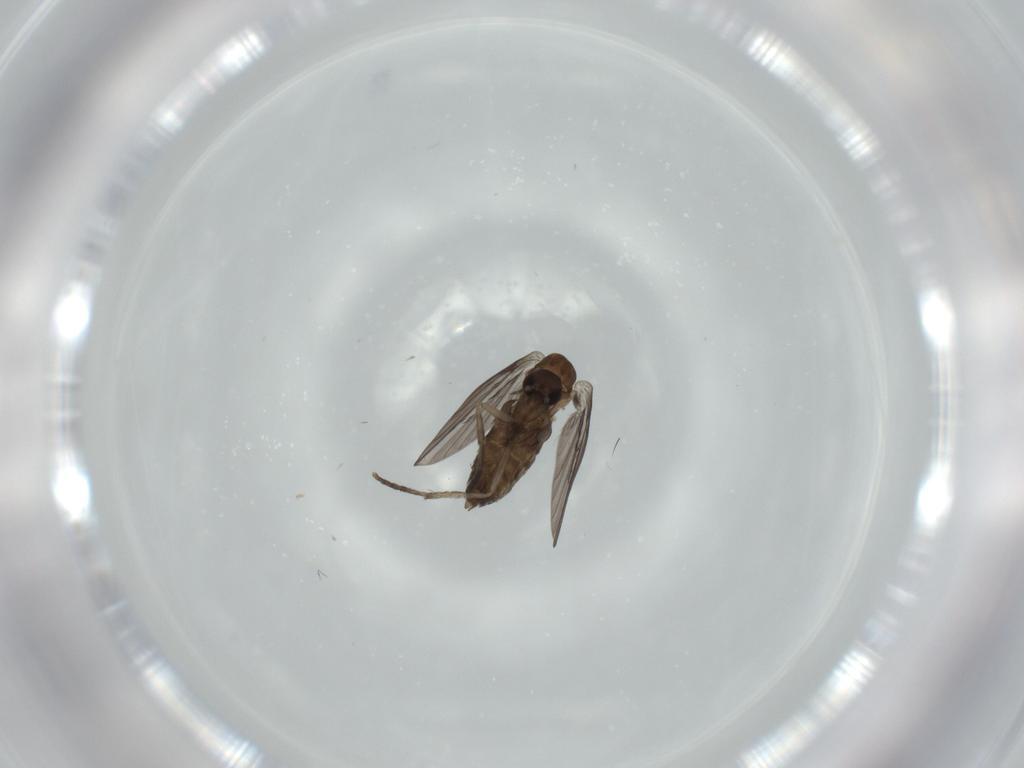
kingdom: Animalia
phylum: Arthropoda
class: Insecta
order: Diptera
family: Psychodidae
